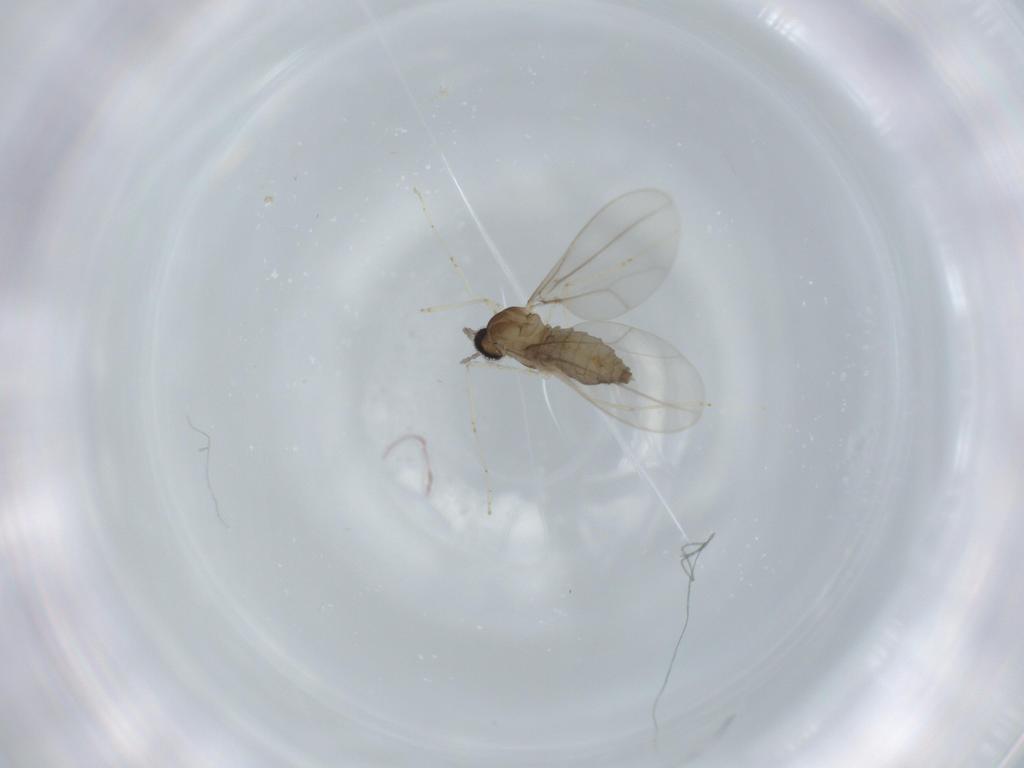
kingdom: Animalia
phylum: Arthropoda
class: Insecta
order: Diptera
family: Cecidomyiidae
